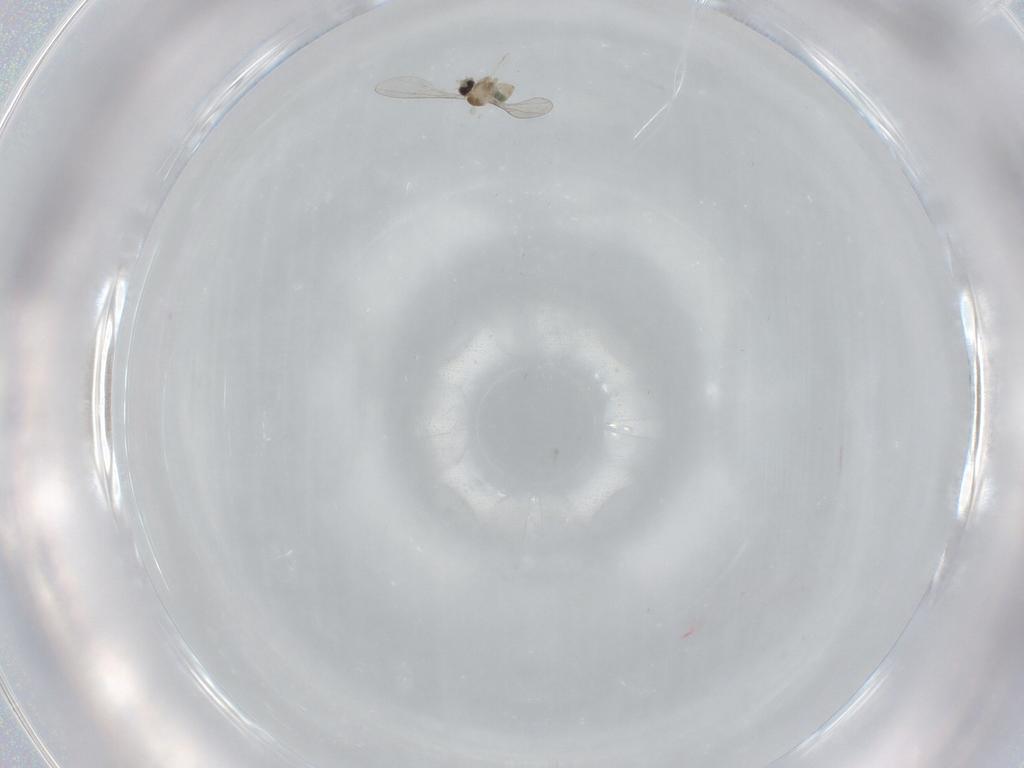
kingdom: Animalia
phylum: Arthropoda
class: Insecta
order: Diptera
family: Cecidomyiidae
